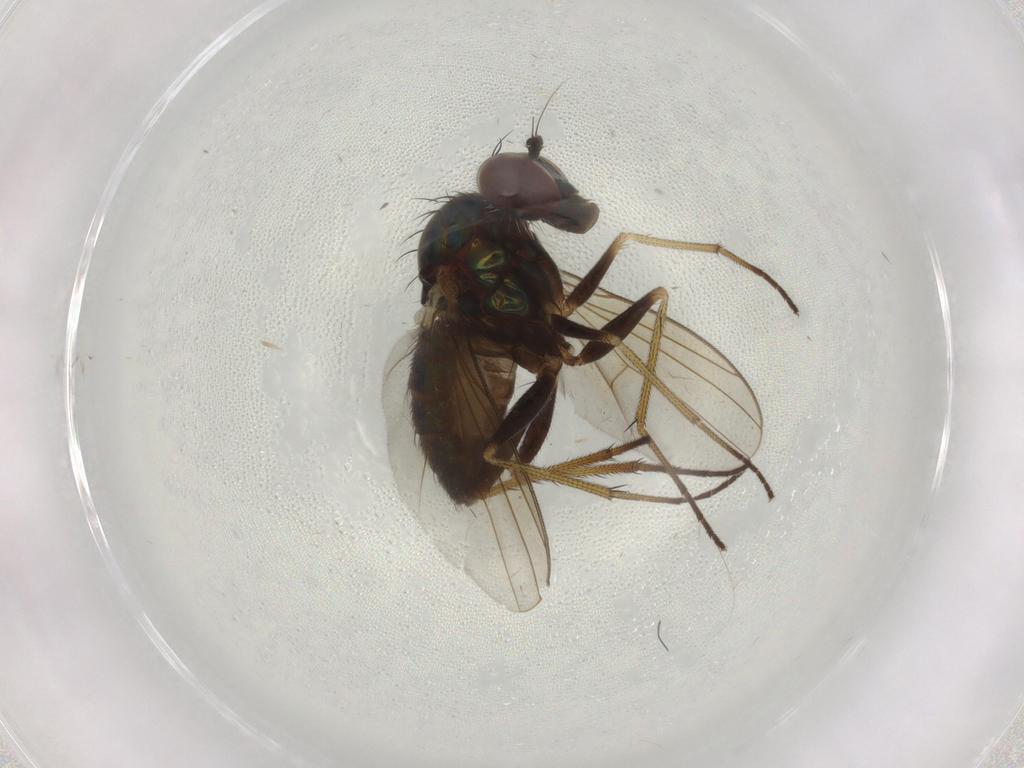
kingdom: Animalia
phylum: Arthropoda
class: Insecta
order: Diptera
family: Dolichopodidae
